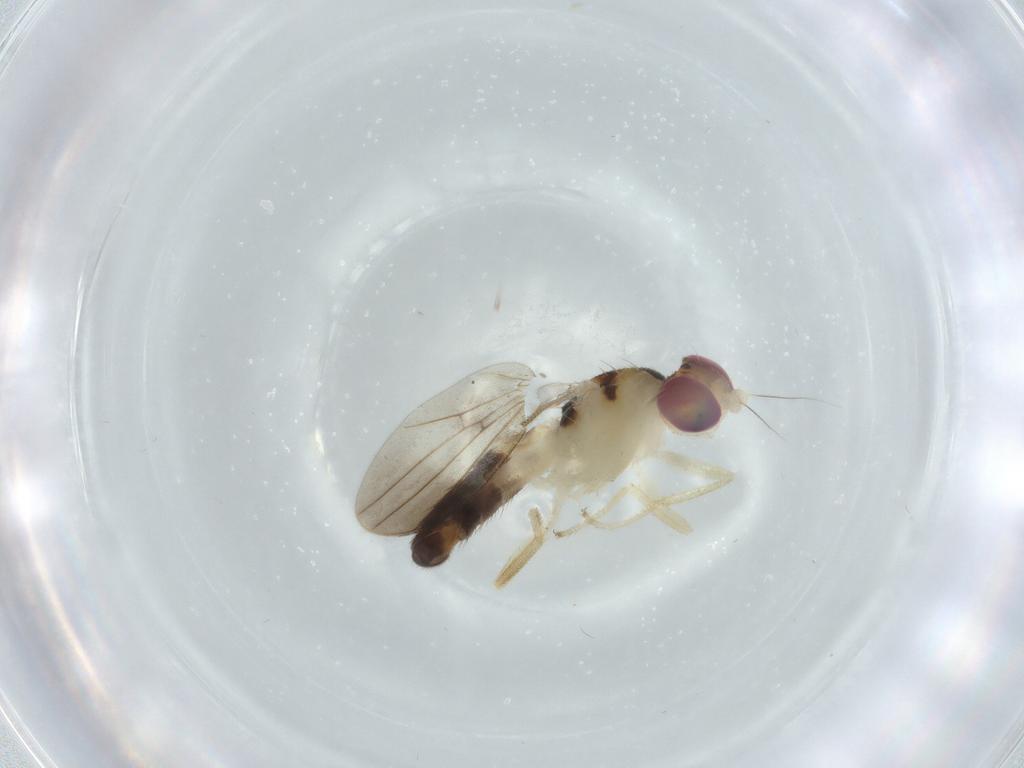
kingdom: Animalia
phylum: Arthropoda
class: Insecta
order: Diptera
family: Clusiidae
